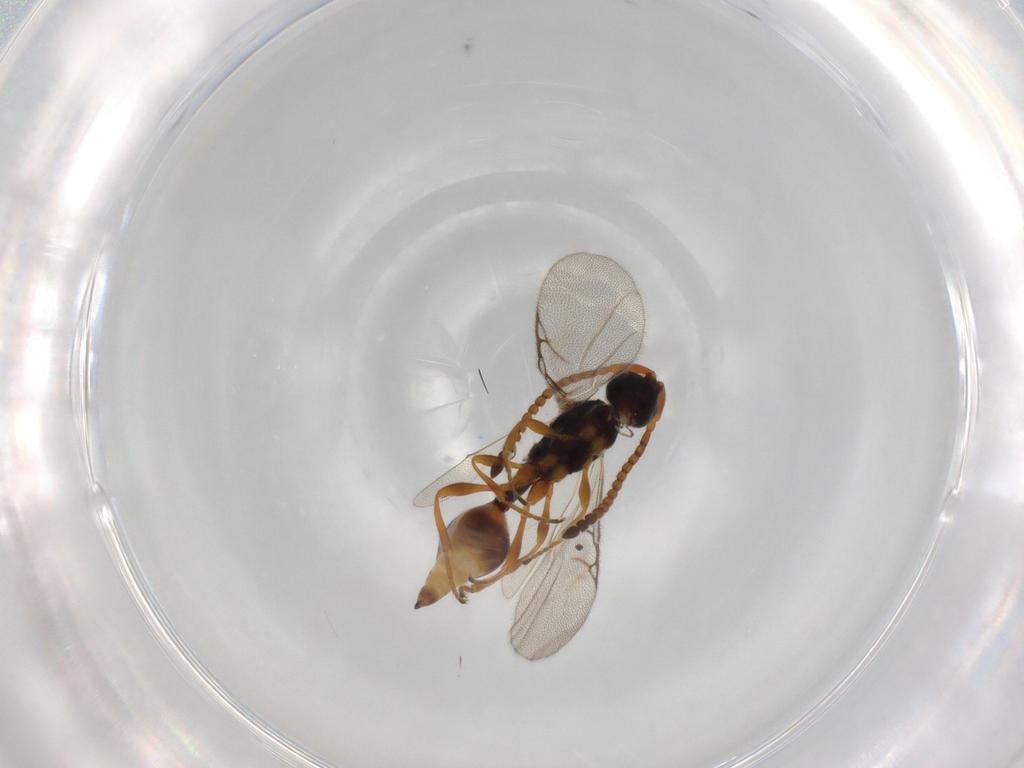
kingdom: Animalia
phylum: Arthropoda
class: Insecta
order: Hymenoptera
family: Diapriidae
